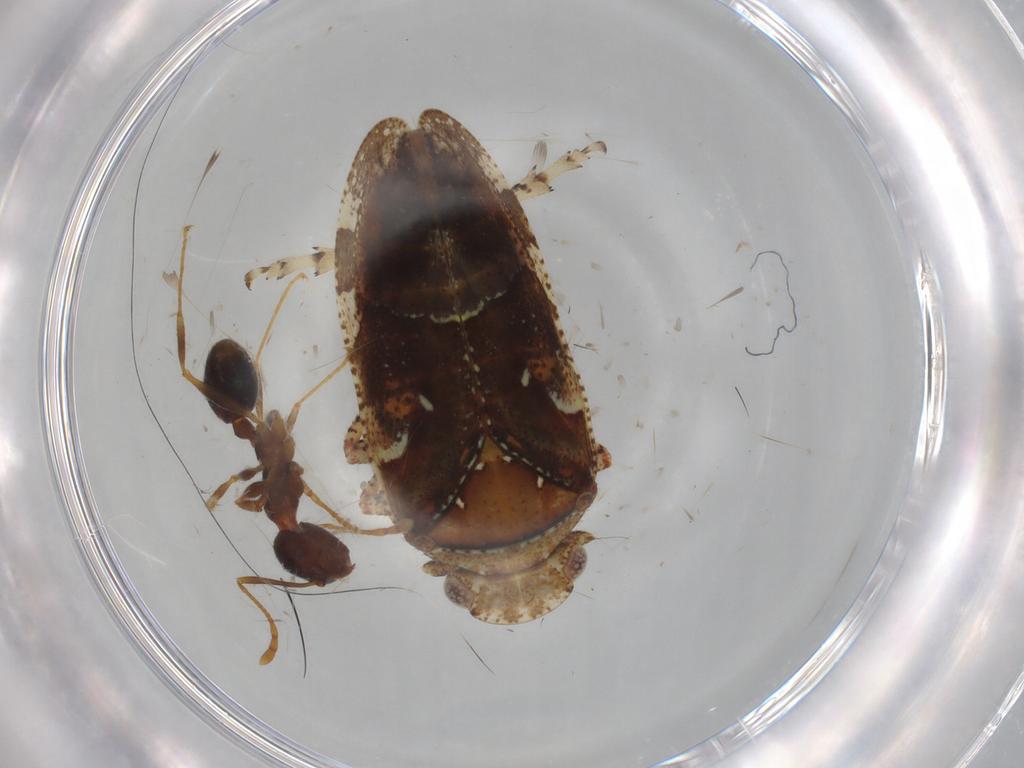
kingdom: Animalia
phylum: Arthropoda
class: Insecta
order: Hemiptera
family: Tettigometridae
